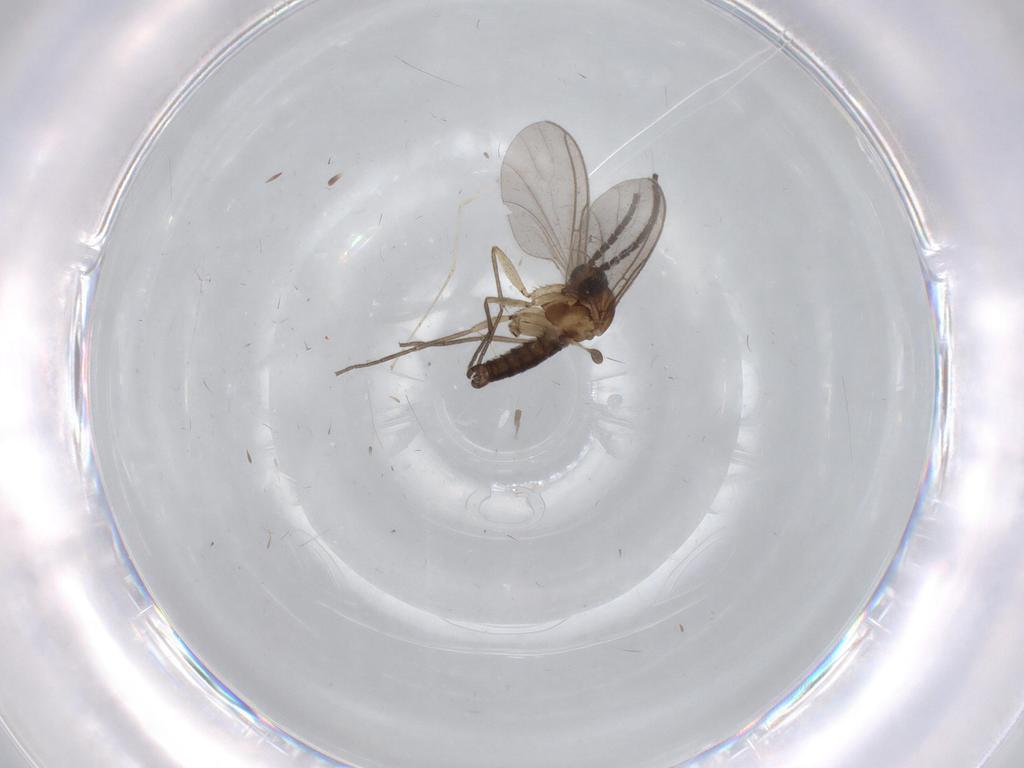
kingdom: Animalia
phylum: Arthropoda
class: Insecta
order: Diptera
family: Sciaridae
